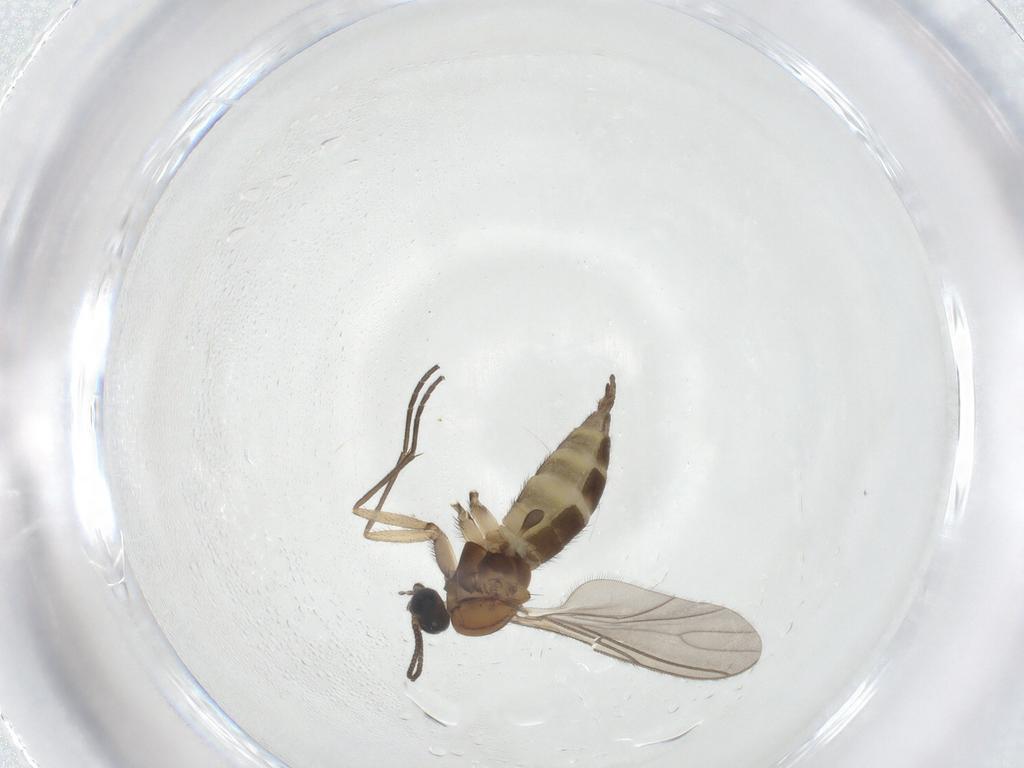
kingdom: Animalia
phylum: Arthropoda
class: Insecta
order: Diptera
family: Sciaridae
